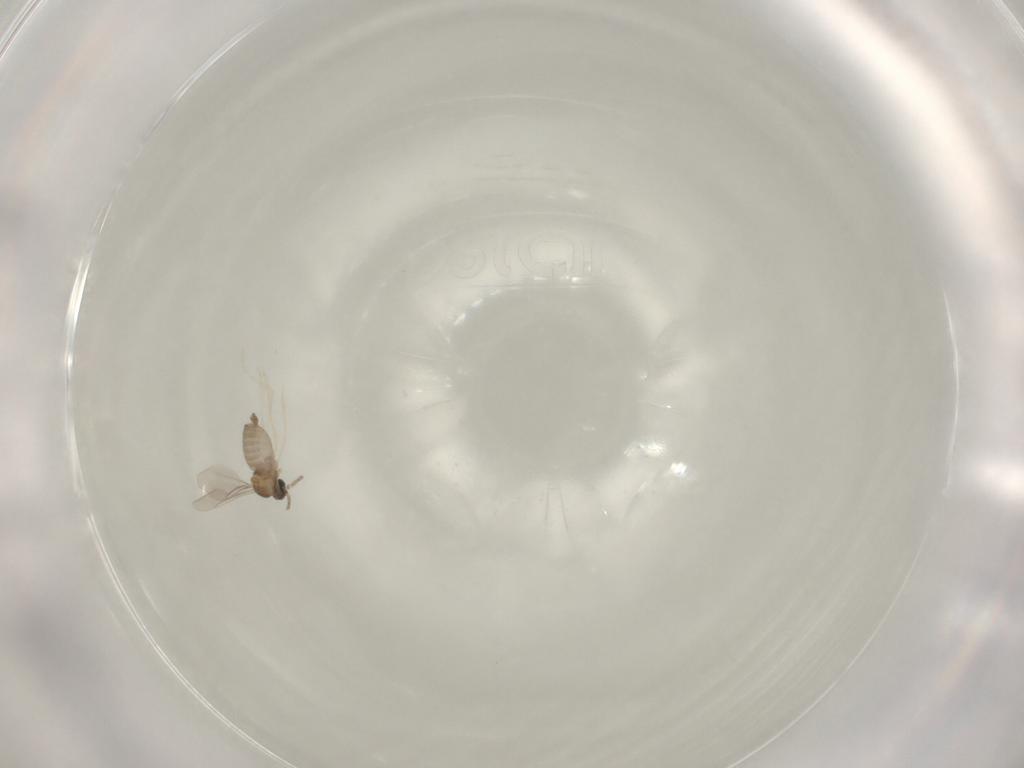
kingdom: Animalia
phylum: Arthropoda
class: Insecta
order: Diptera
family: Cecidomyiidae
